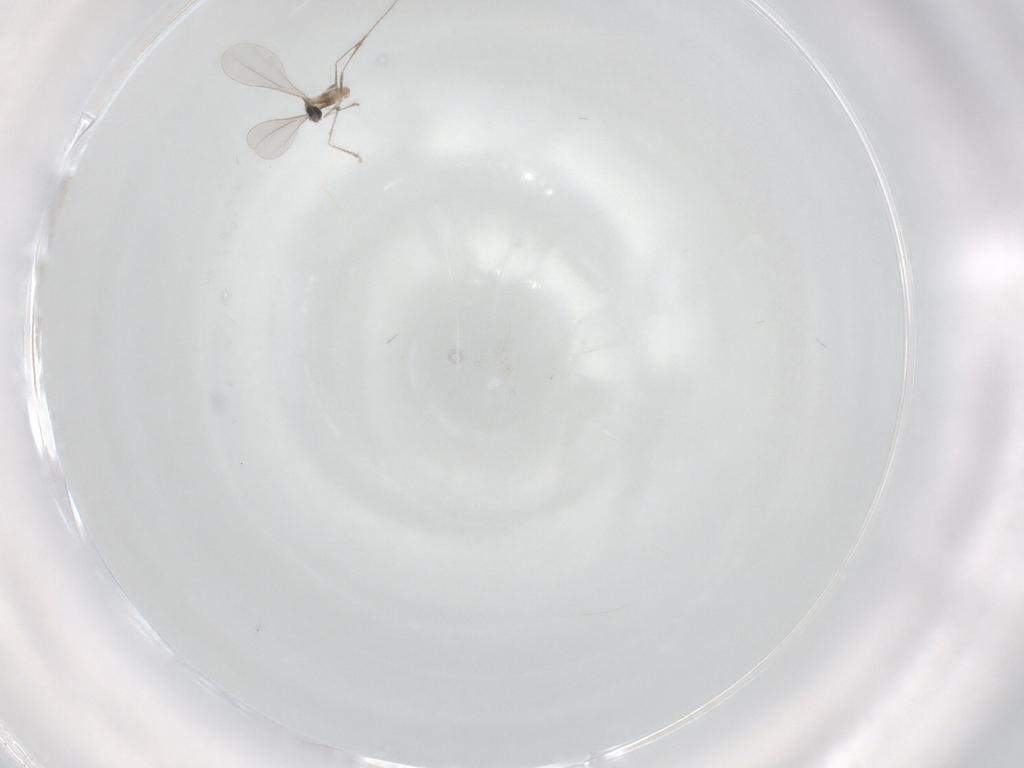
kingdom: Animalia
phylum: Arthropoda
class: Insecta
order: Diptera
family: Cecidomyiidae
